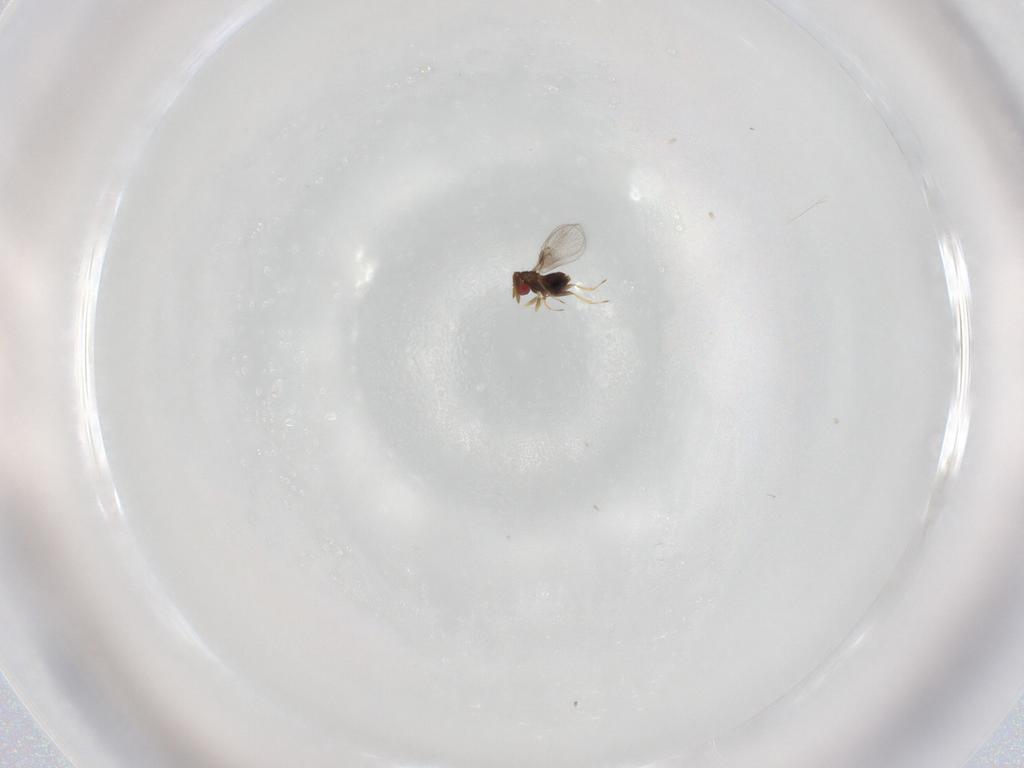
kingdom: Animalia
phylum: Arthropoda
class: Insecta
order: Hymenoptera
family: Trichogrammatidae
